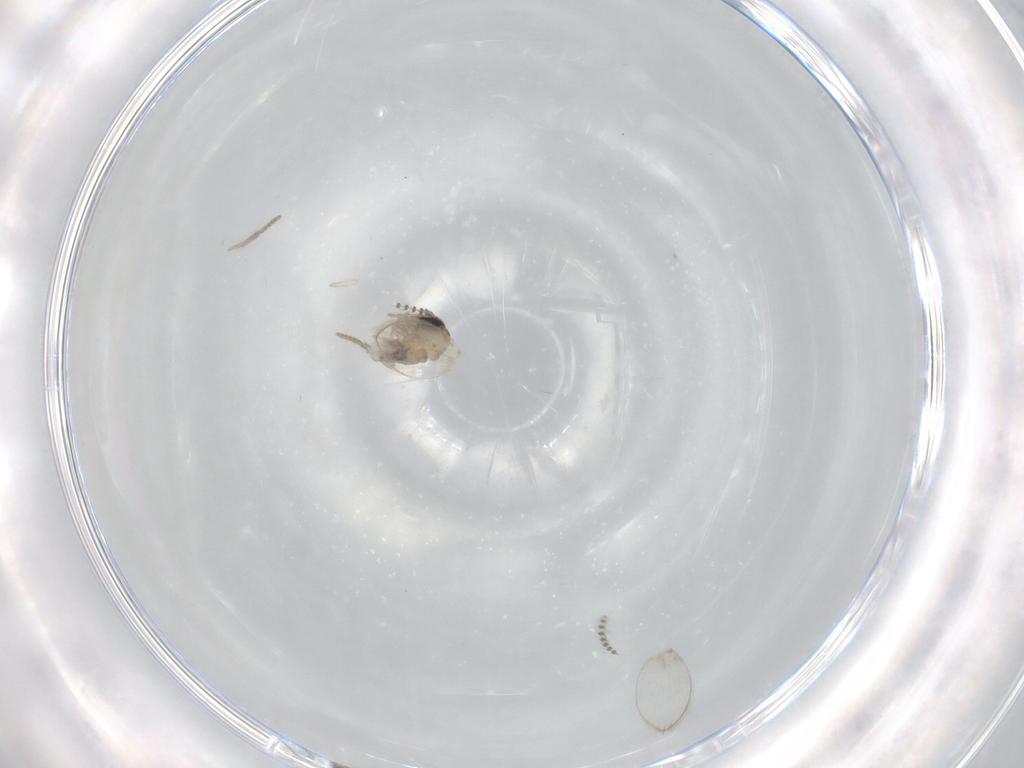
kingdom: Animalia
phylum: Arthropoda
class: Insecta
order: Diptera
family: Psychodidae
